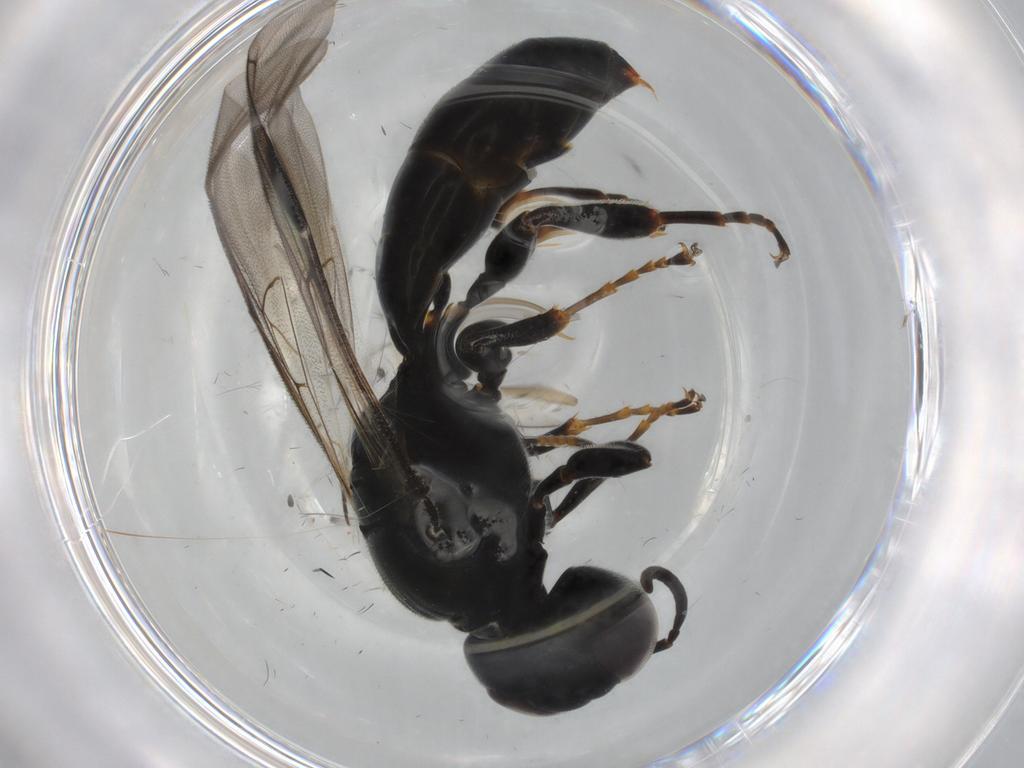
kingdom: Animalia
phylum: Arthropoda
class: Insecta
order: Hymenoptera
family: Crabronidae
